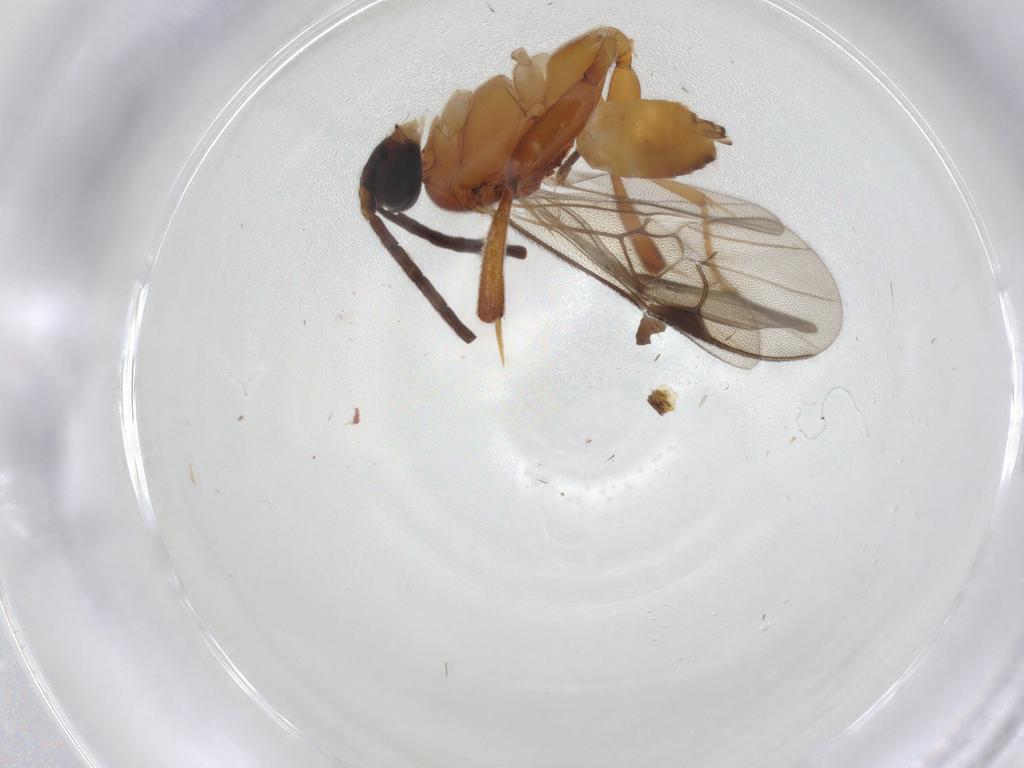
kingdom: Animalia
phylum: Arthropoda
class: Insecta
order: Hymenoptera
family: Braconidae
